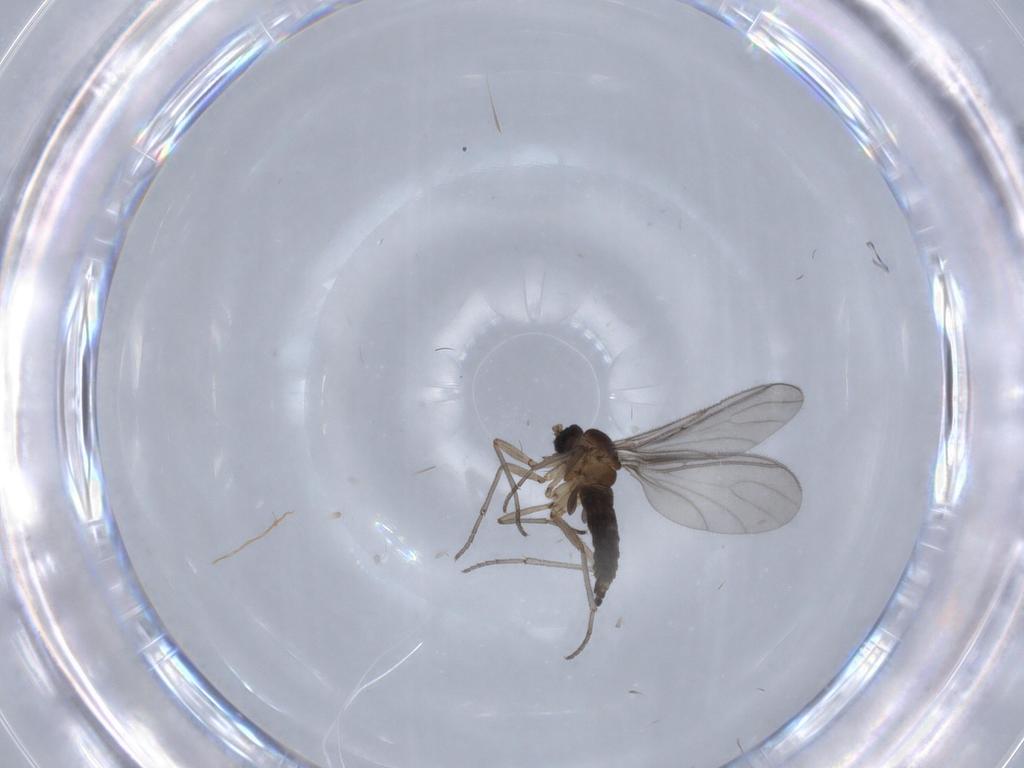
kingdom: Animalia
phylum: Arthropoda
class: Insecta
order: Diptera
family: Sciaridae
